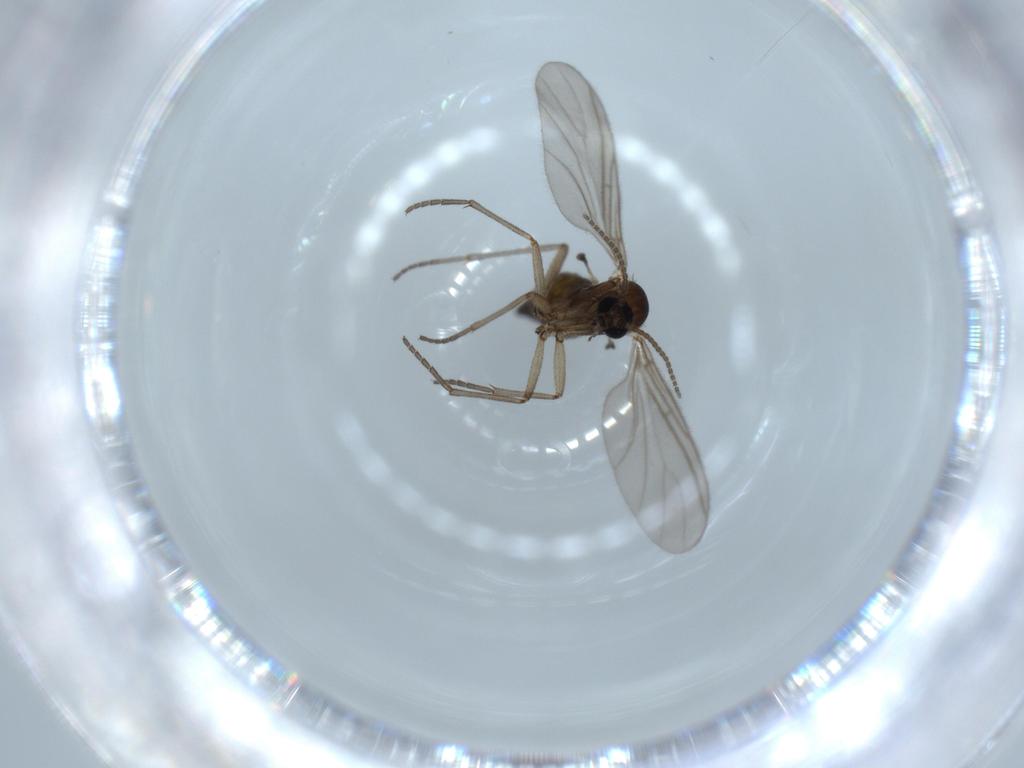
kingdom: Animalia
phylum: Arthropoda
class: Insecta
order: Diptera
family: Sciaridae
